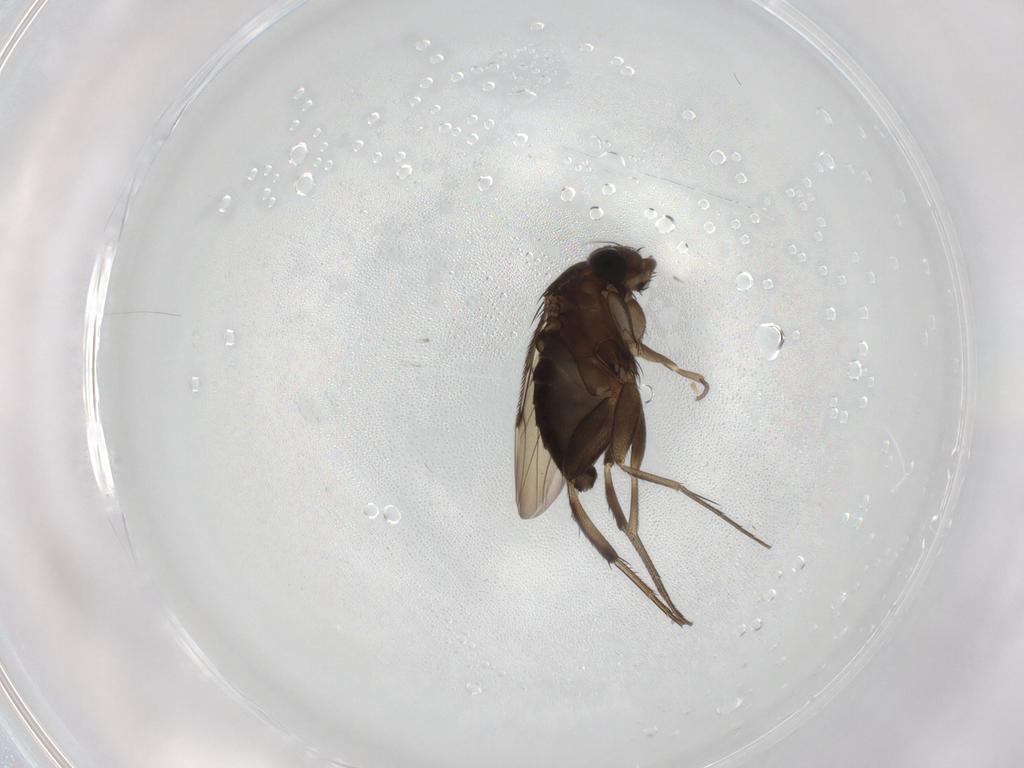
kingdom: Animalia
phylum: Arthropoda
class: Insecta
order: Diptera
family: Phoridae
